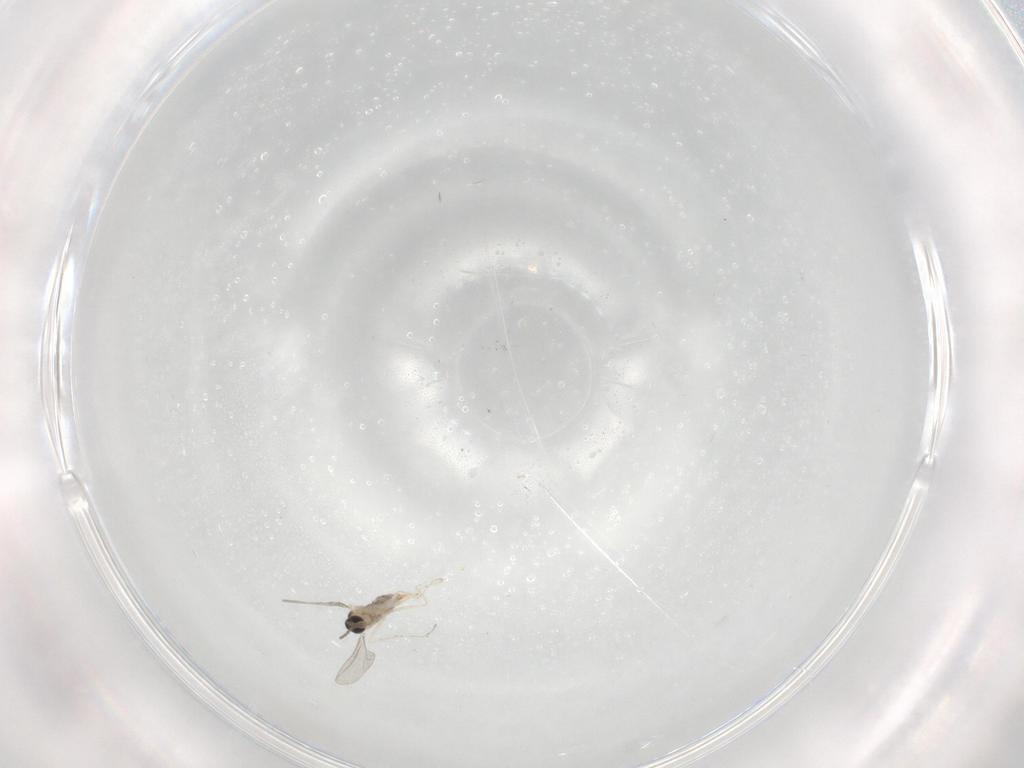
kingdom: Animalia
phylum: Arthropoda
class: Insecta
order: Diptera
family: Cecidomyiidae
